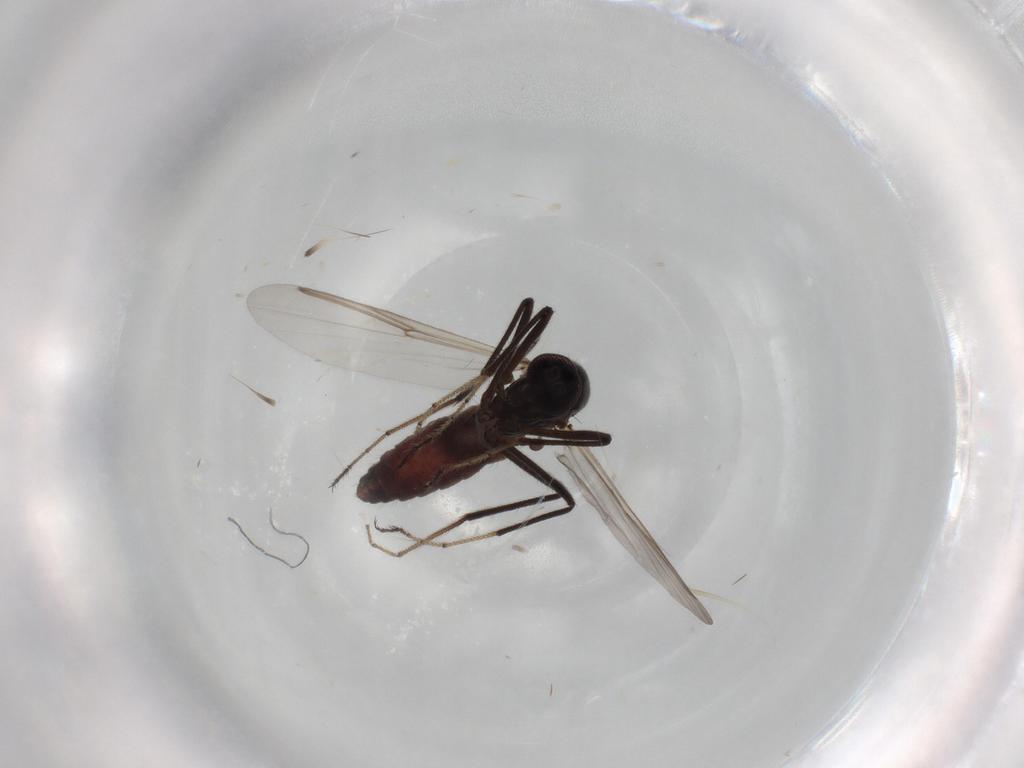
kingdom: Animalia
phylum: Arthropoda
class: Insecta
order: Diptera
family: Ceratopogonidae
